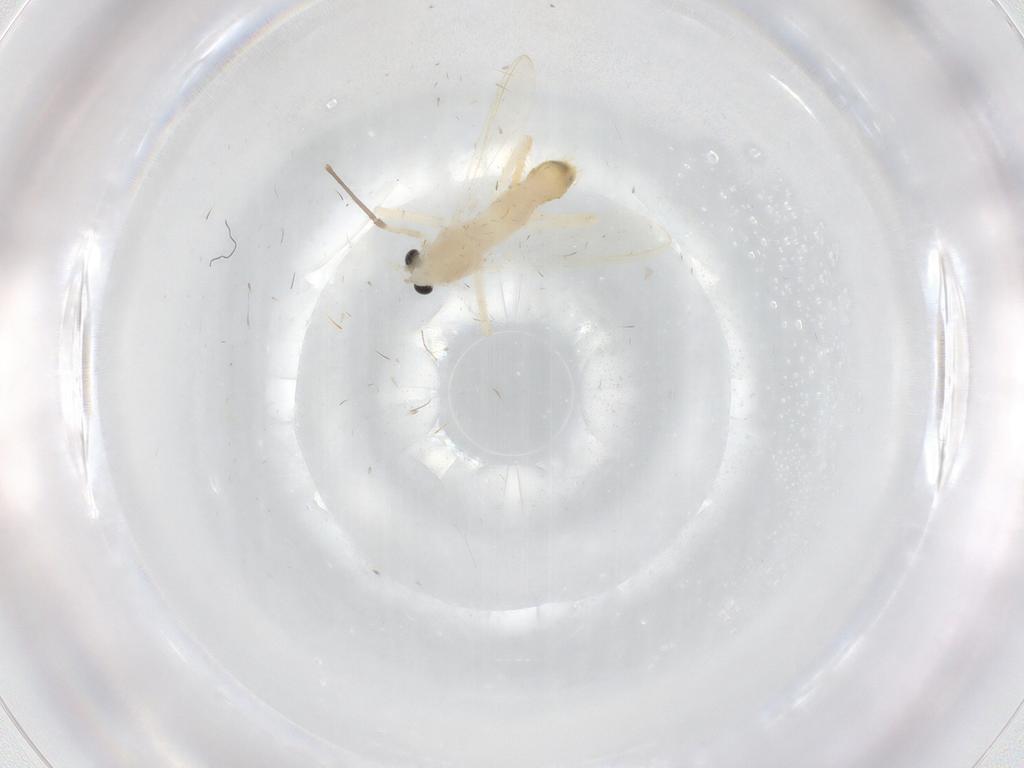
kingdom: Animalia
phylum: Arthropoda
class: Insecta
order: Diptera
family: Chironomidae
